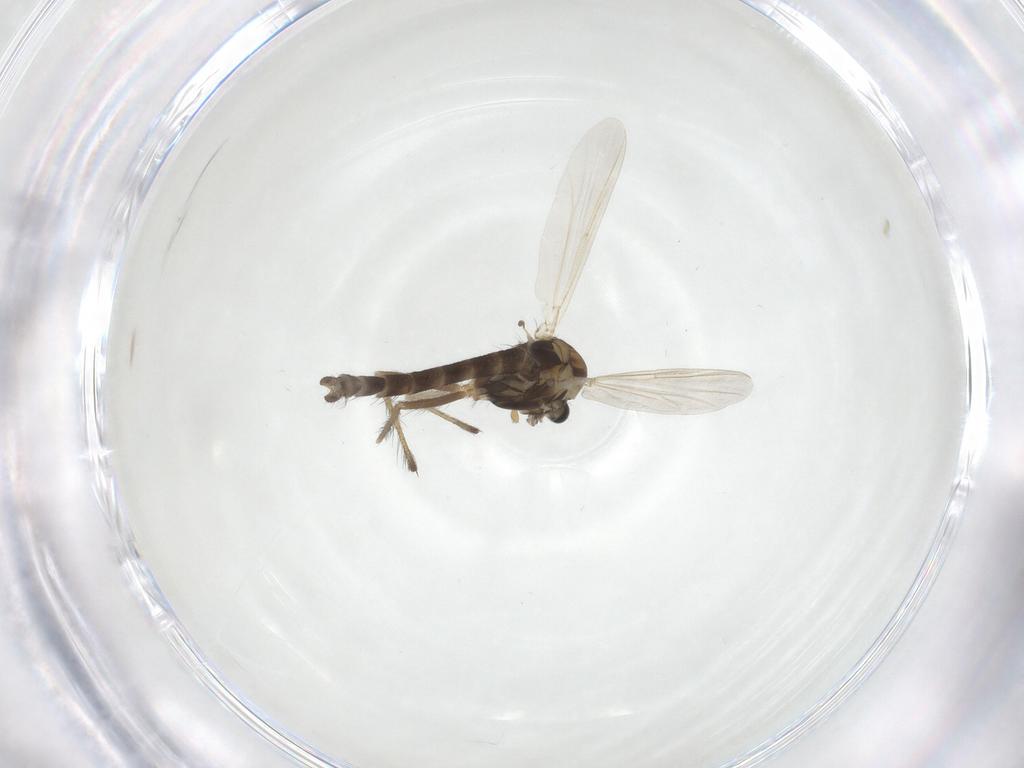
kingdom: Animalia
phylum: Arthropoda
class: Insecta
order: Diptera
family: Chironomidae
